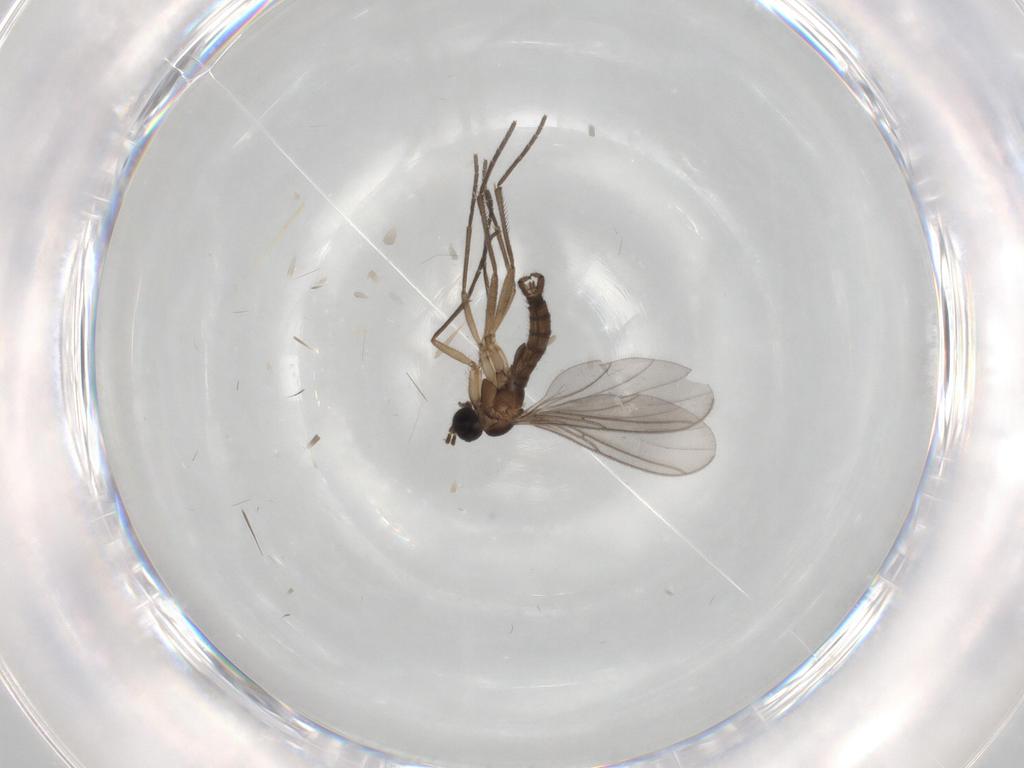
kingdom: Animalia
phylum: Arthropoda
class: Insecta
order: Diptera
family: Sciaridae
